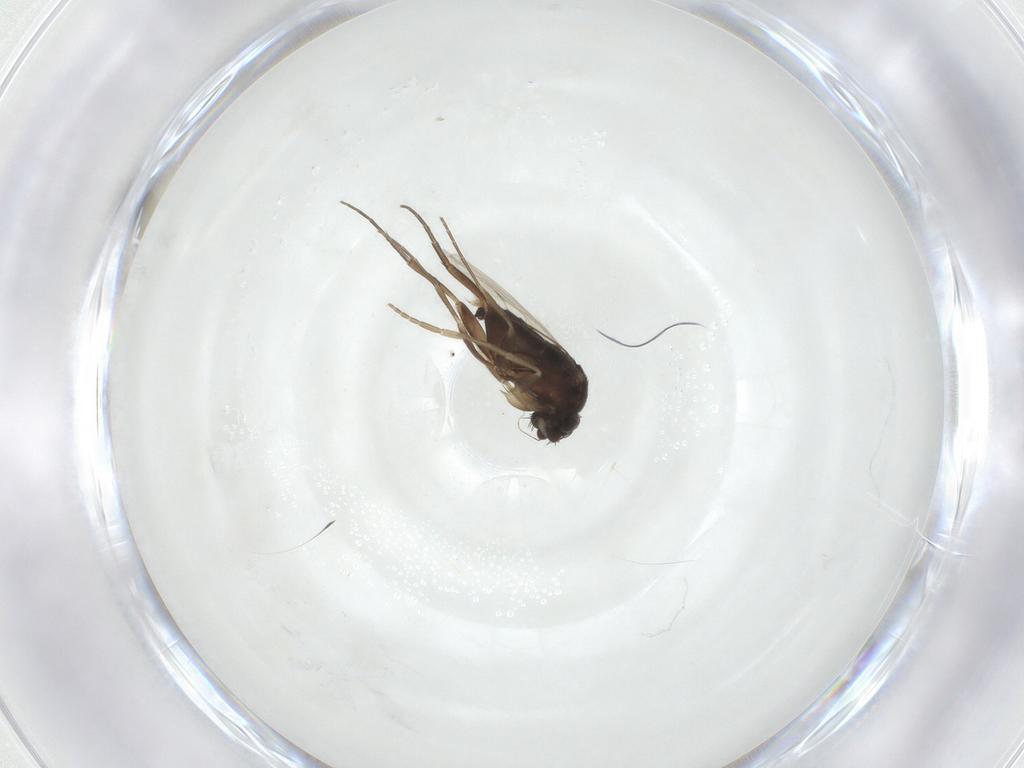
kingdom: Animalia
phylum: Arthropoda
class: Insecta
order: Diptera
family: Phoridae
